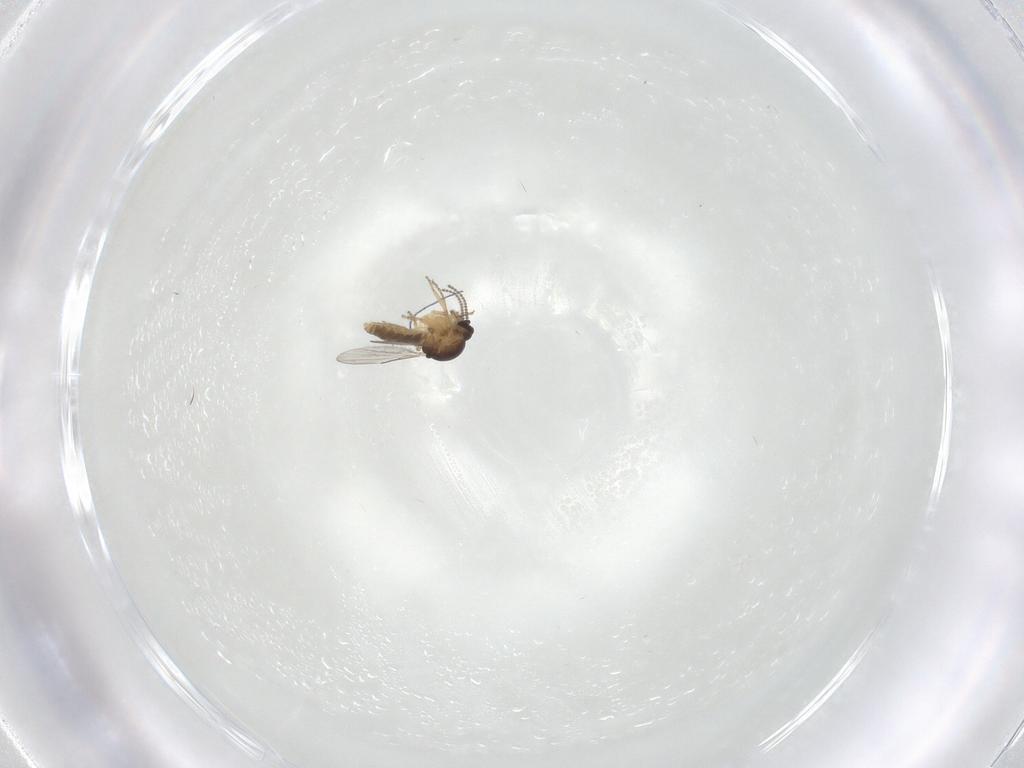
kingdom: Animalia
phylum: Arthropoda
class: Insecta
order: Diptera
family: Ceratopogonidae
